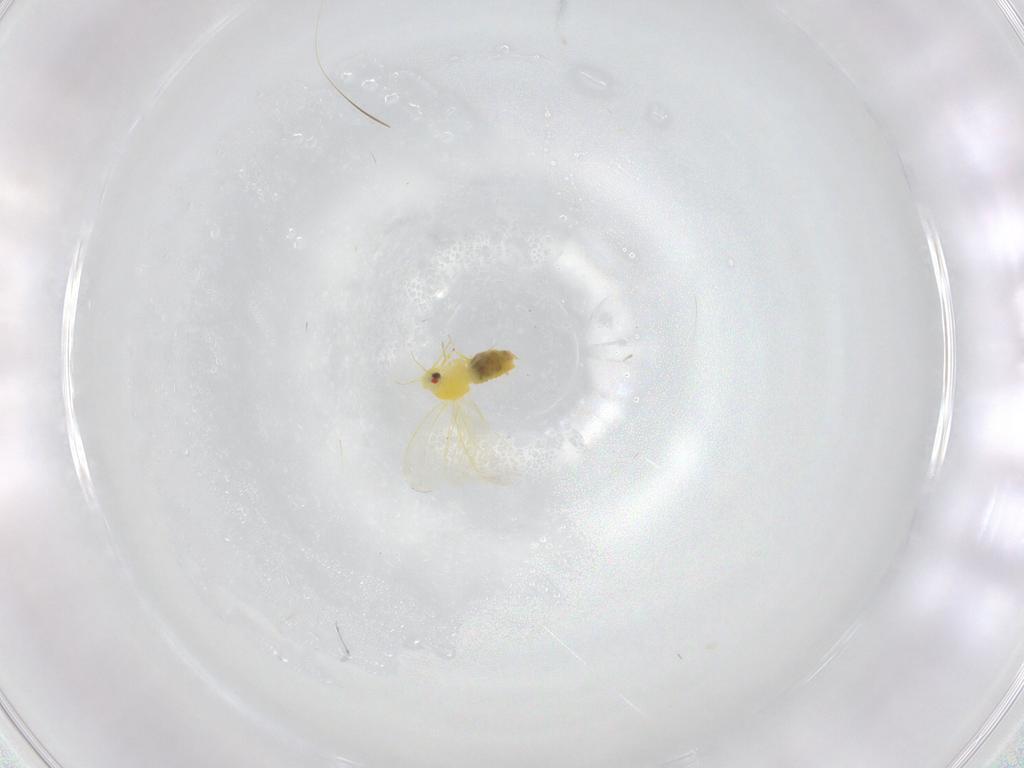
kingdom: Animalia
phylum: Arthropoda
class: Insecta
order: Hemiptera
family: Cicadellidae
